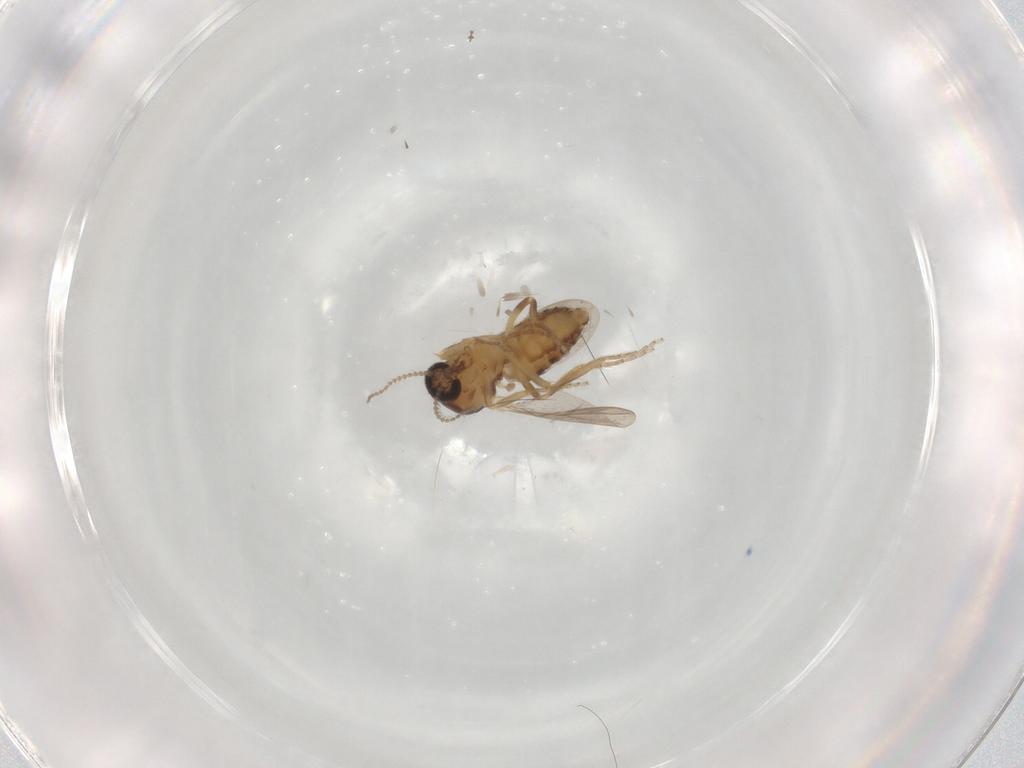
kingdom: Animalia
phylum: Arthropoda
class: Insecta
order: Diptera
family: Ceratopogonidae
